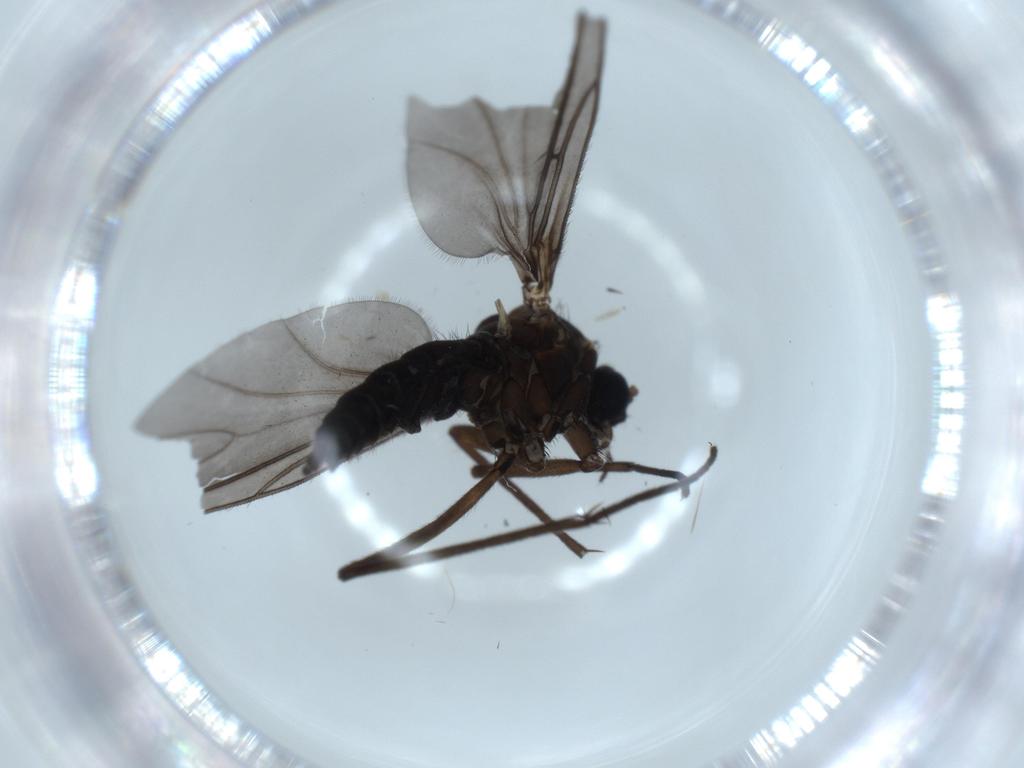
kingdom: Animalia
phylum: Arthropoda
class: Insecta
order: Diptera
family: Sciaridae
